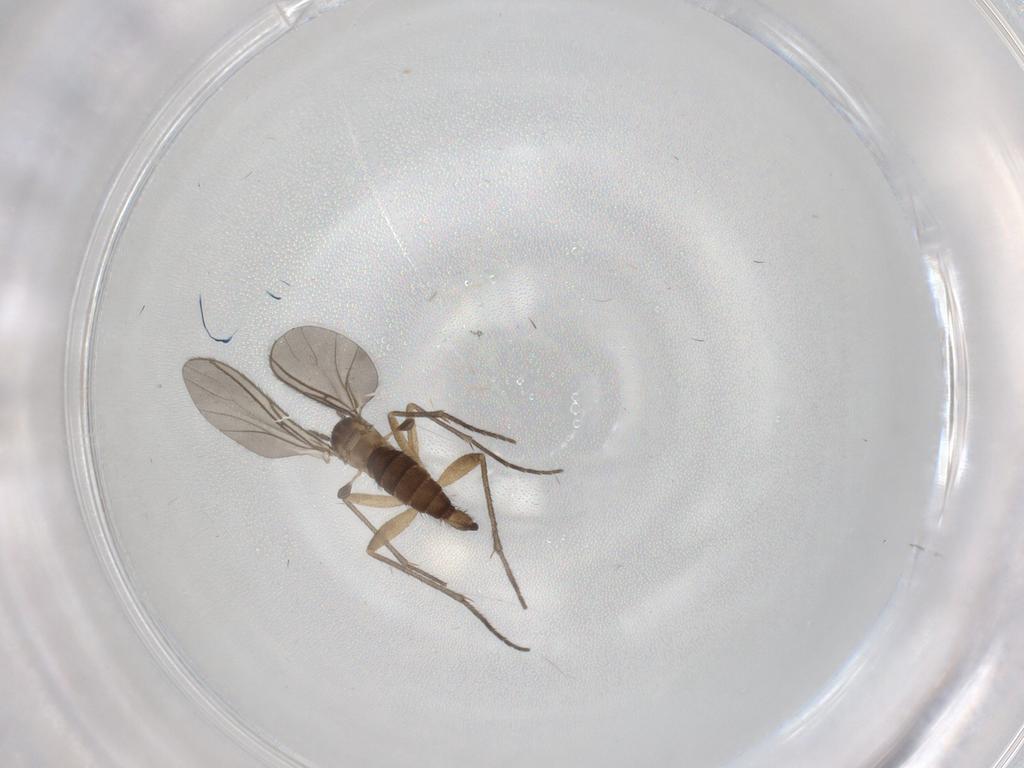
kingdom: Animalia
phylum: Arthropoda
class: Insecta
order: Diptera
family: Sciaridae
